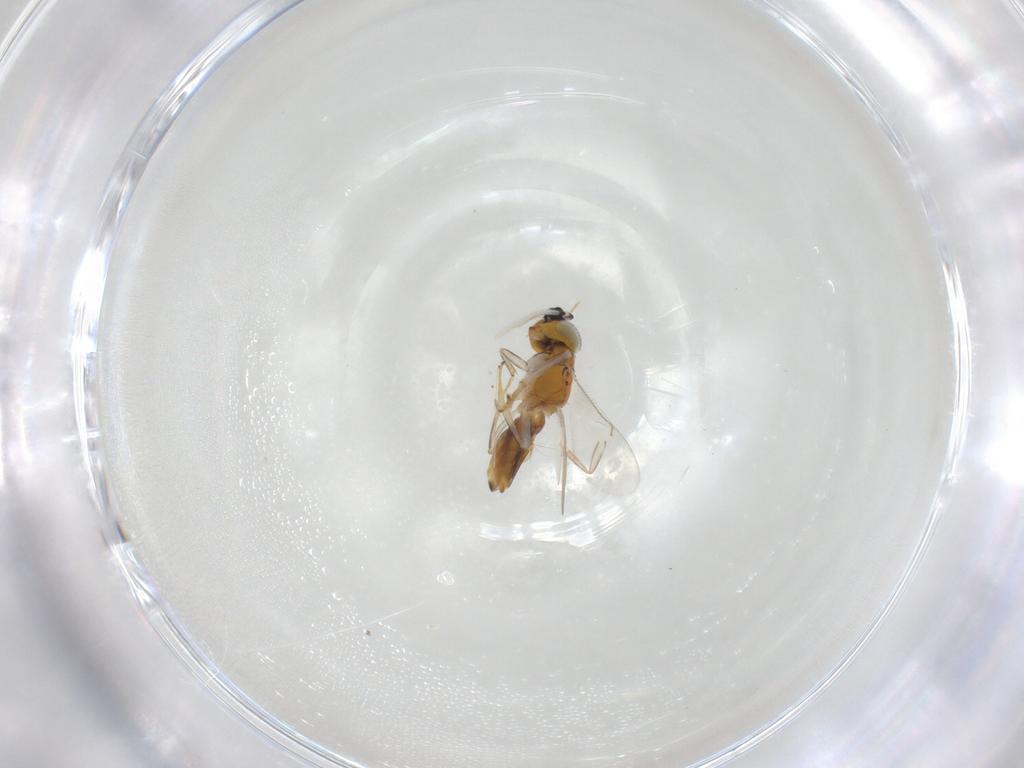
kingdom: Animalia
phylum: Arthropoda
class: Insecta
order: Hymenoptera
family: Encyrtidae
